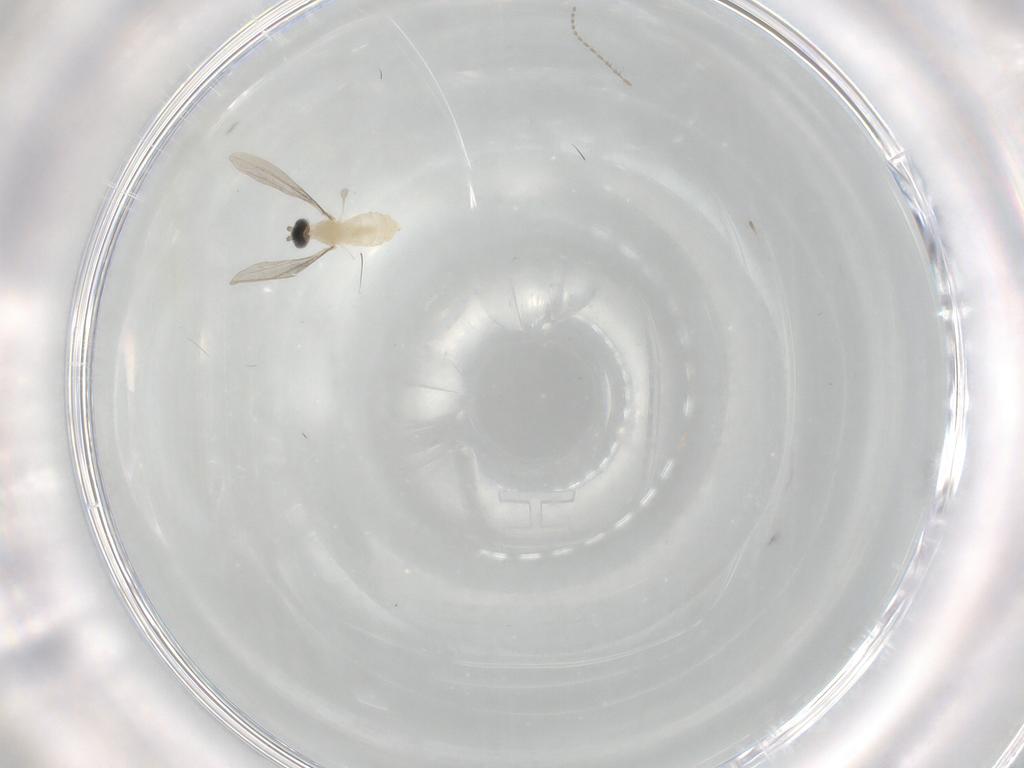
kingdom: Animalia
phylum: Arthropoda
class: Insecta
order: Diptera
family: Cecidomyiidae
